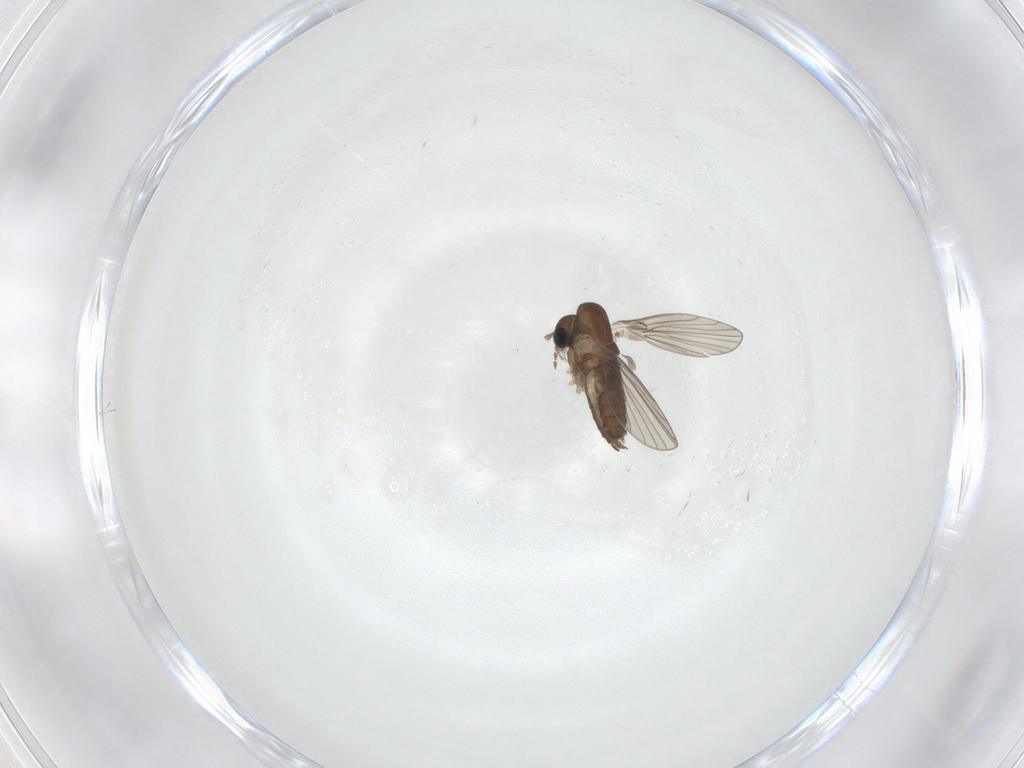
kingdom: Animalia
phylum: Arthropoda
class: Insecta
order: Diptera
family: Psychodidae
